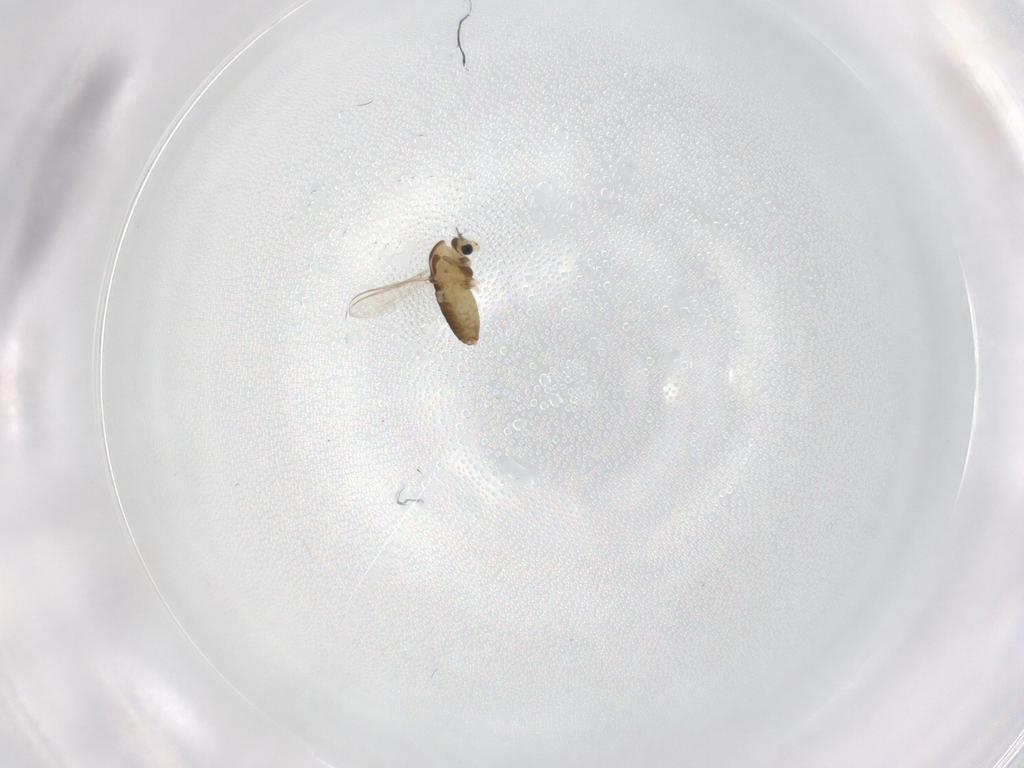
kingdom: Animalia
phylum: Arthropoda
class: Insecta
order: Diptera
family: Chironomidae
